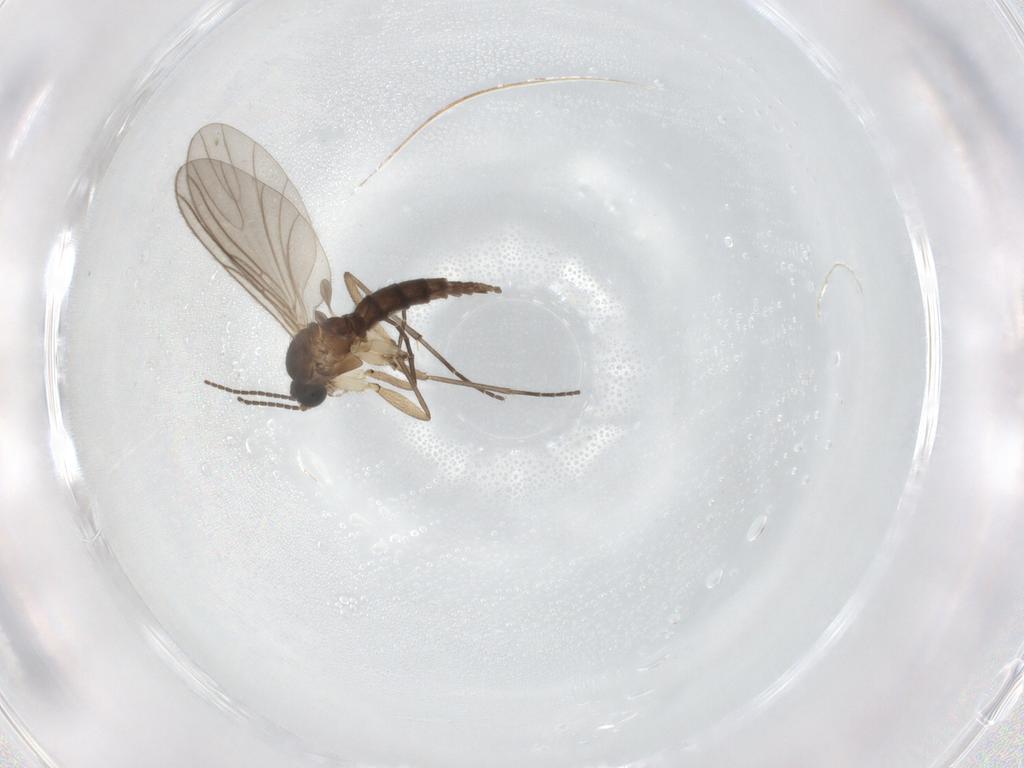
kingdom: Animalia
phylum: Arthropoda
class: Insecta
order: Diptera
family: Sciaridae
